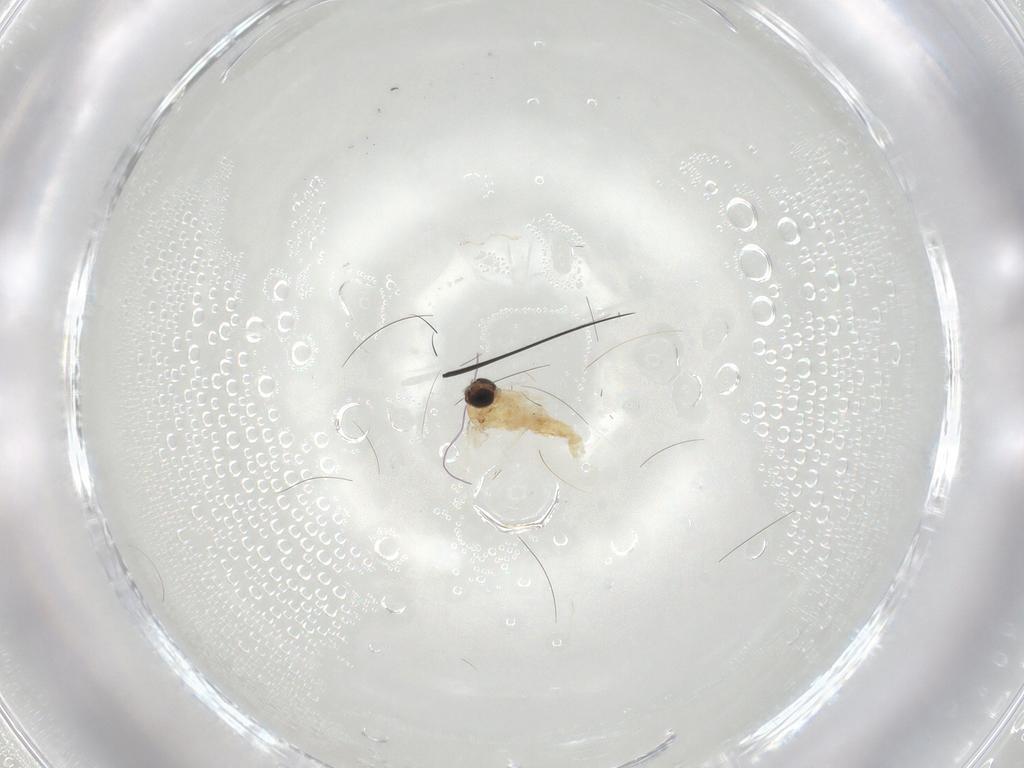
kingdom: Animalia
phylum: Arthropoda
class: Insecta
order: Diptera
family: Sciaridae
